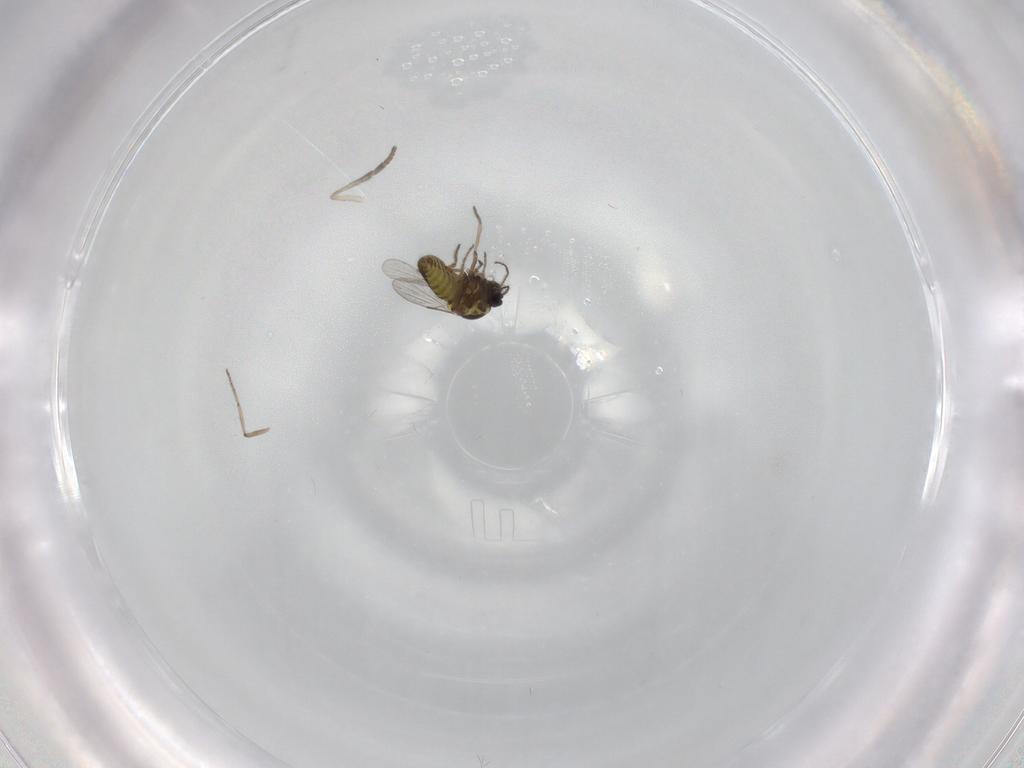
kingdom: Animalia
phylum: Arthropoda
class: Insecta
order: Diptera
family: Ceratopogonidae
